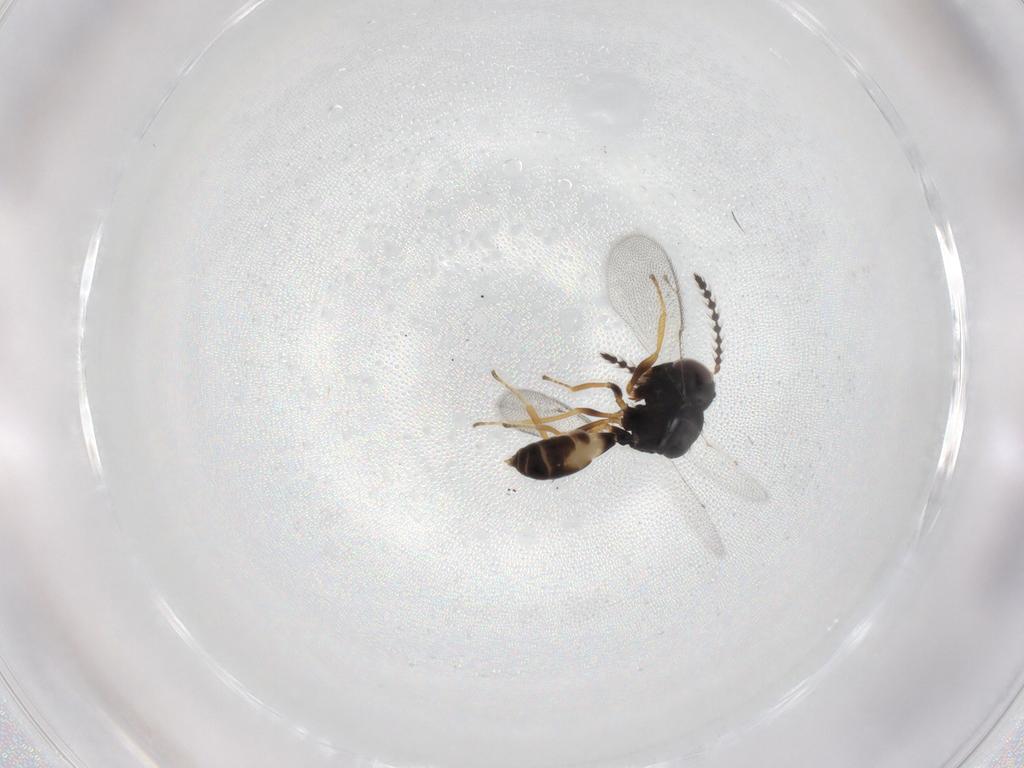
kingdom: Animalia
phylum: Arthropoda
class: Insecta
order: Hymenoptera
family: Pteromalidae
